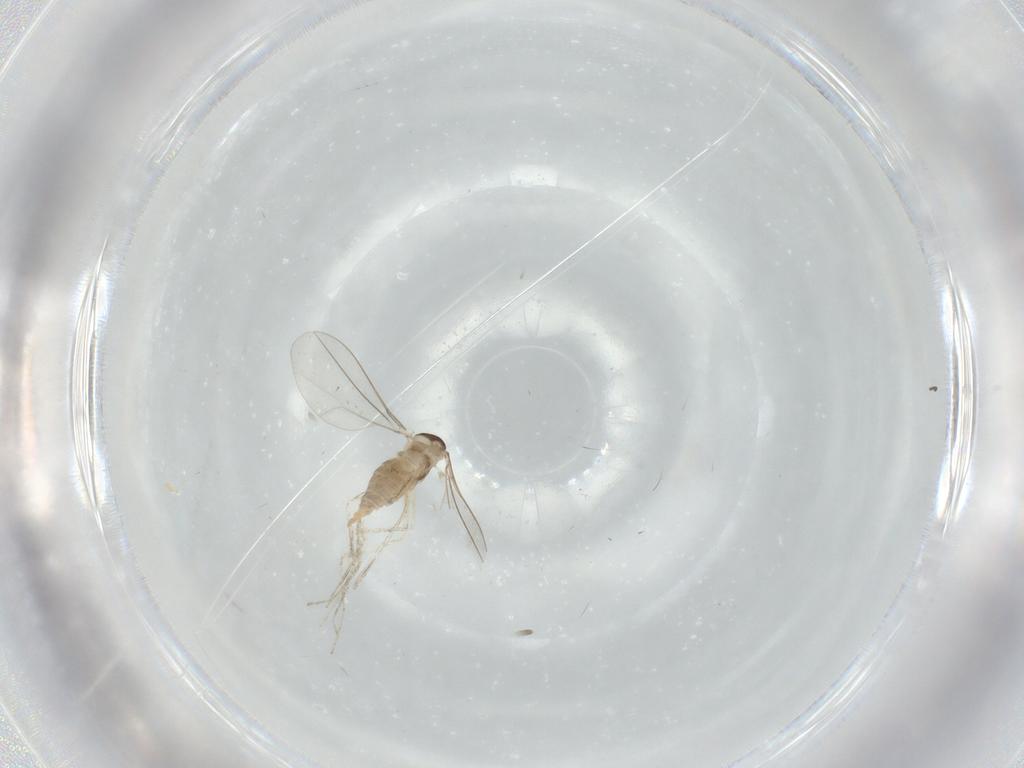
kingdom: Animalia
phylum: Arthropoda
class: Insecta
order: Diptera
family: Cecidomyiidae
